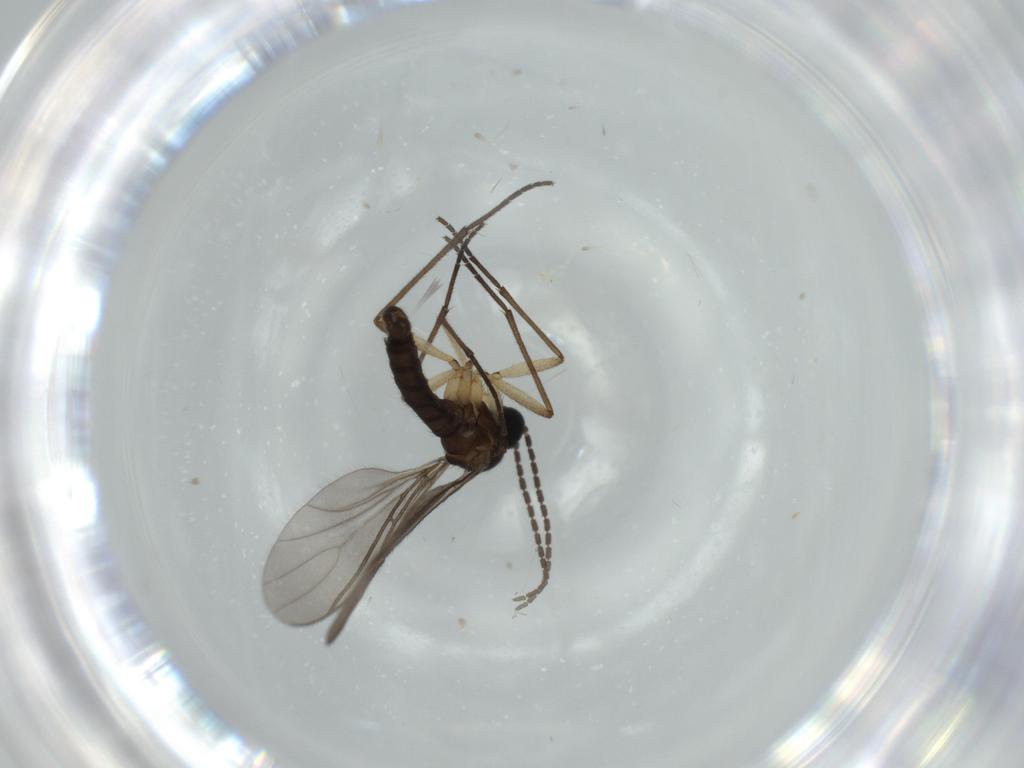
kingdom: Animalia
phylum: Arthropoda
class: Insecta
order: Diptera
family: Sciaridae
